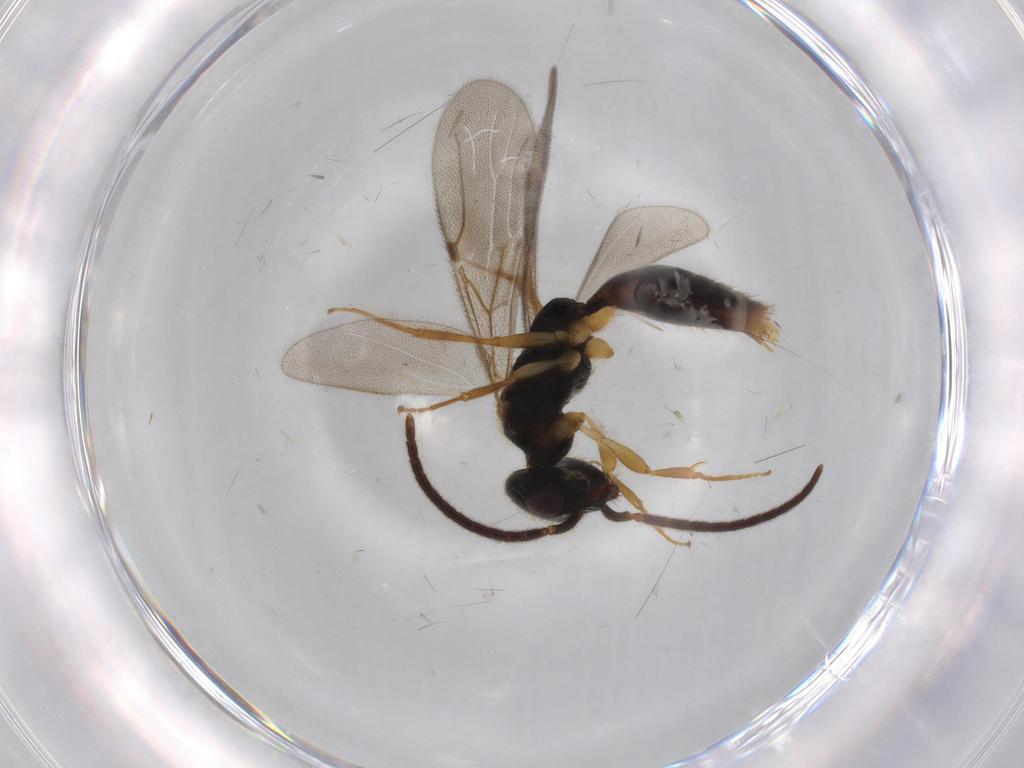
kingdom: Animalia
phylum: Arthropoda
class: Insecta
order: Hymenoptera
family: Bethylidae
